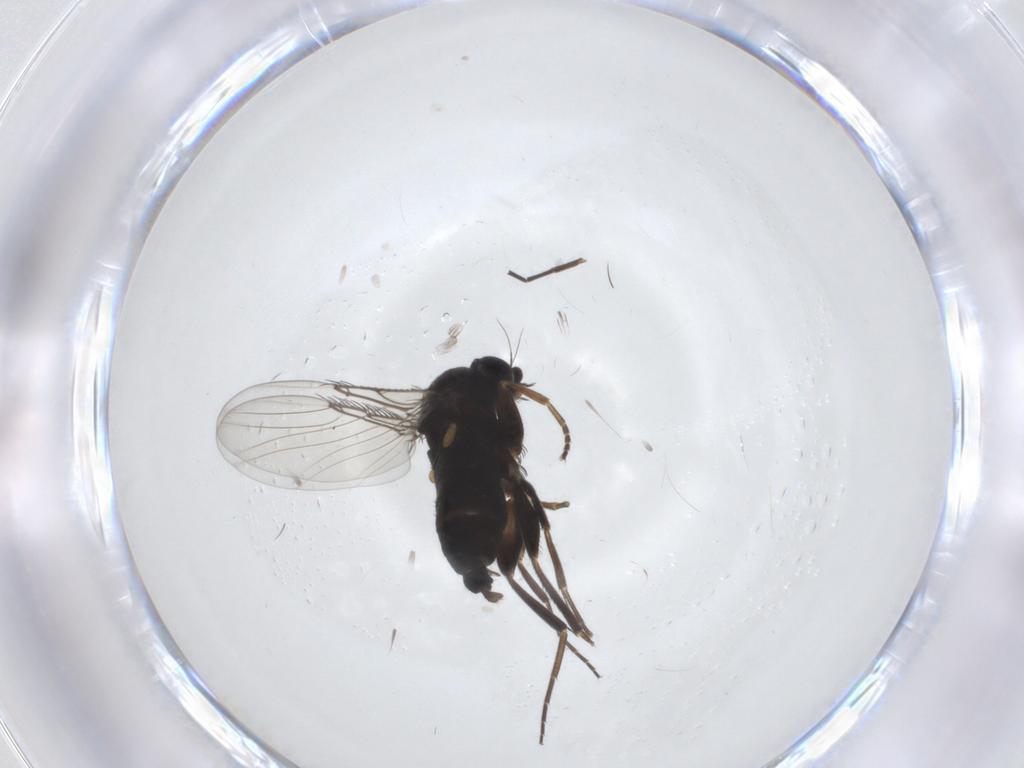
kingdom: Animalia
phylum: Arthropoda
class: Insecta
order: Diptera
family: Phoridae
